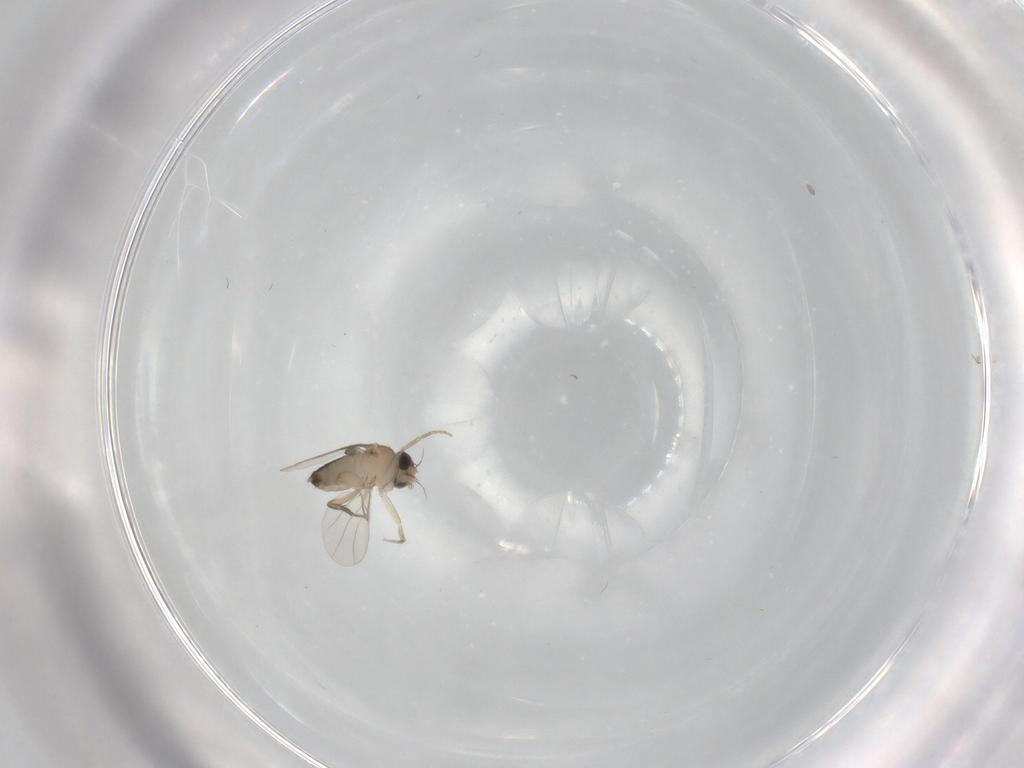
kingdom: Animalia
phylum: Arthropoda
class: Insecta
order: Diptera
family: Phoridae
